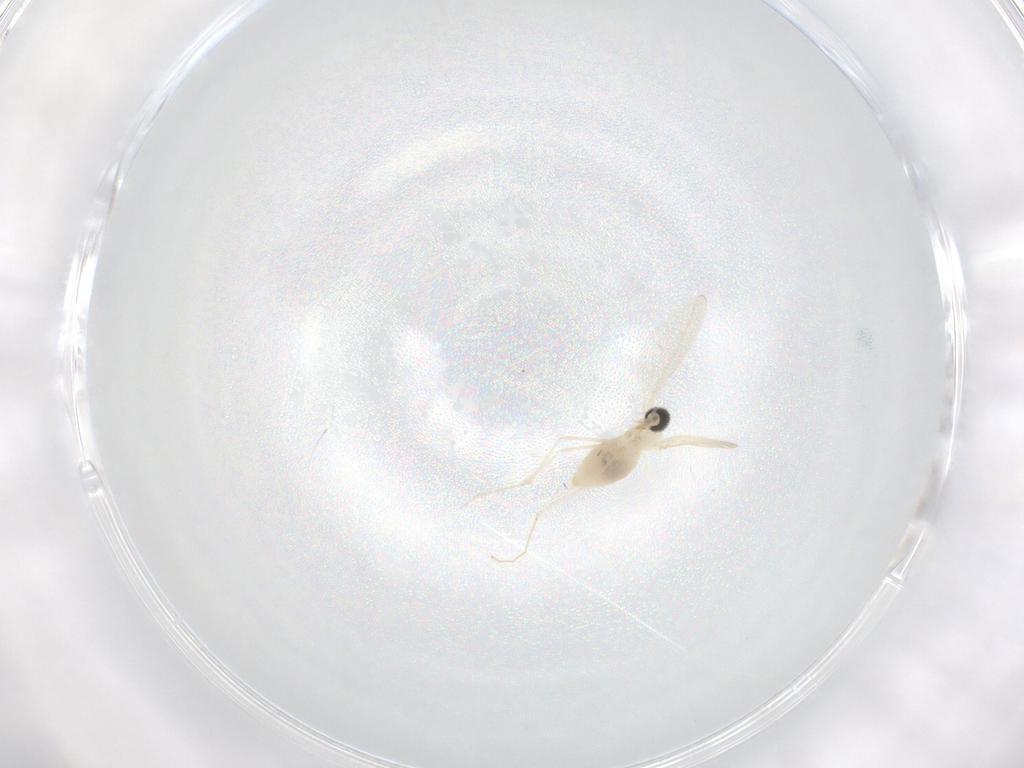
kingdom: Animalia
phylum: Arthropoda
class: Insecta
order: Diptera
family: Cecidomyiidae
